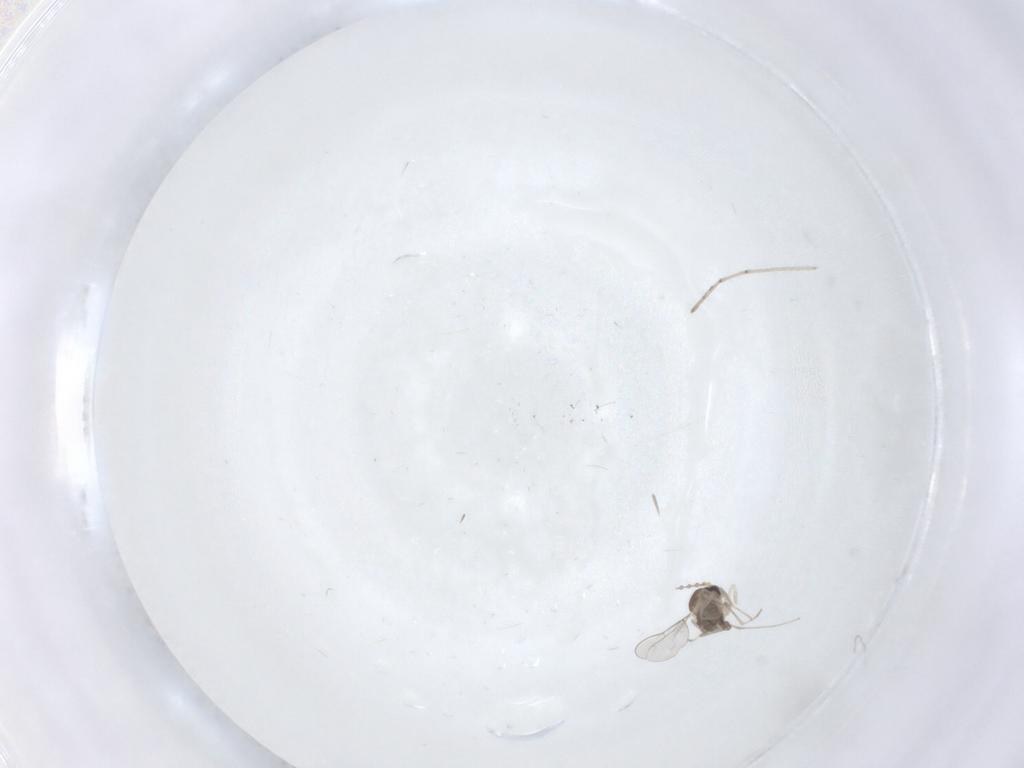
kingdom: Animalia
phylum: Arthropoda
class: Insecta
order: Diptera
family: Cecidomyiidae
